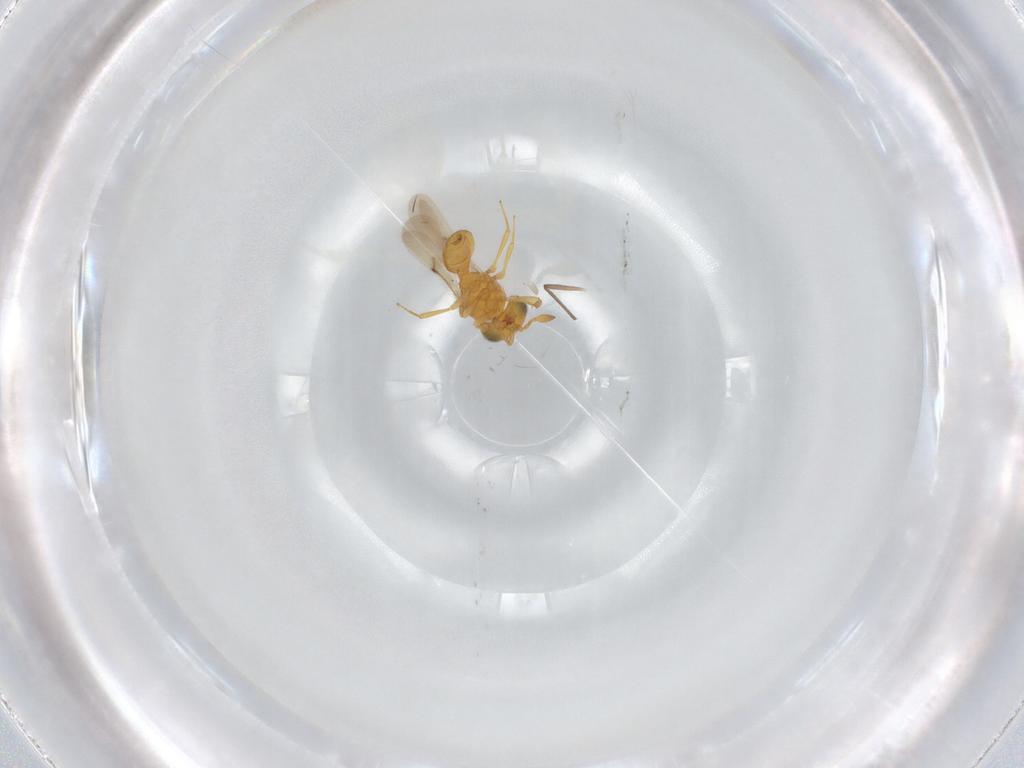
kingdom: Animalia
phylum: Arthropoda
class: Insecta
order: Hymenoptera
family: Scelionidae
